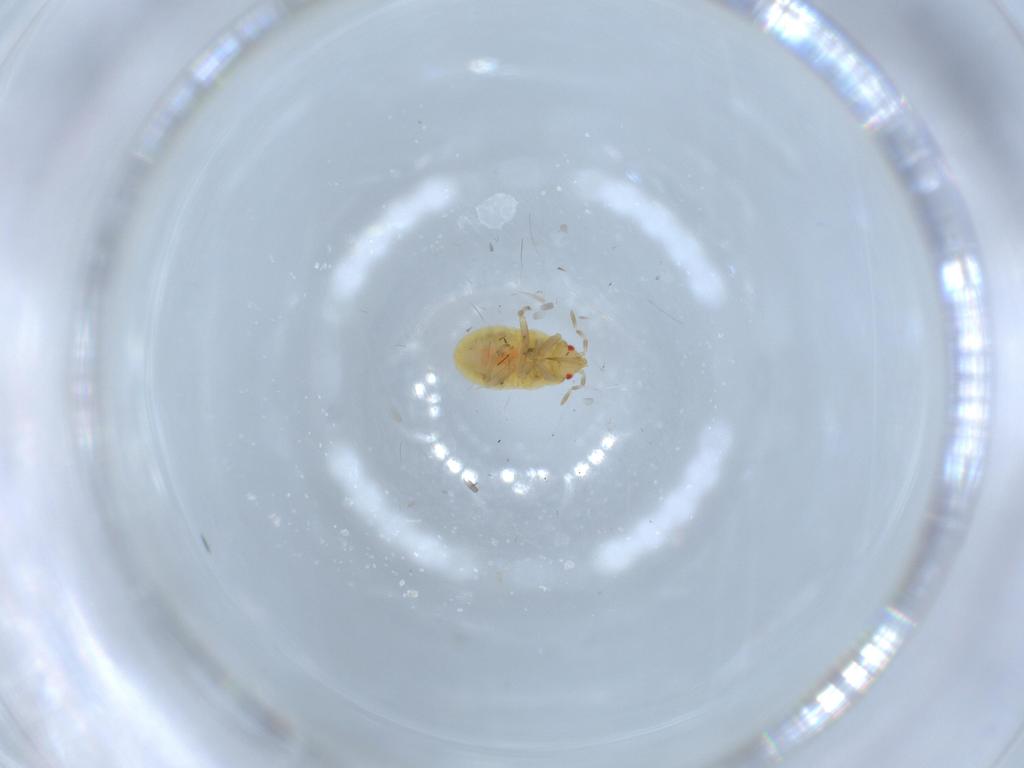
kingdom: Animalia
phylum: Arthropoda
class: Insecta
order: Hemiptera
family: Anthocoridae
